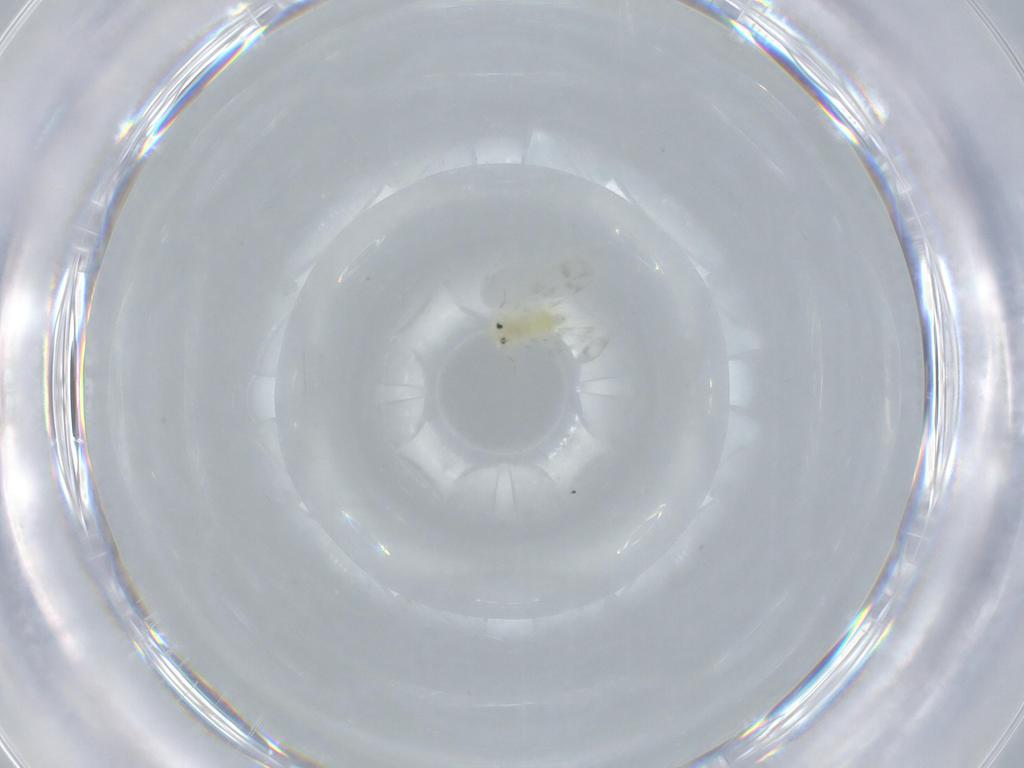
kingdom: Animalia
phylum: Arthropoda
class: Insecta
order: Hemiptera
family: Aleyrodidae
